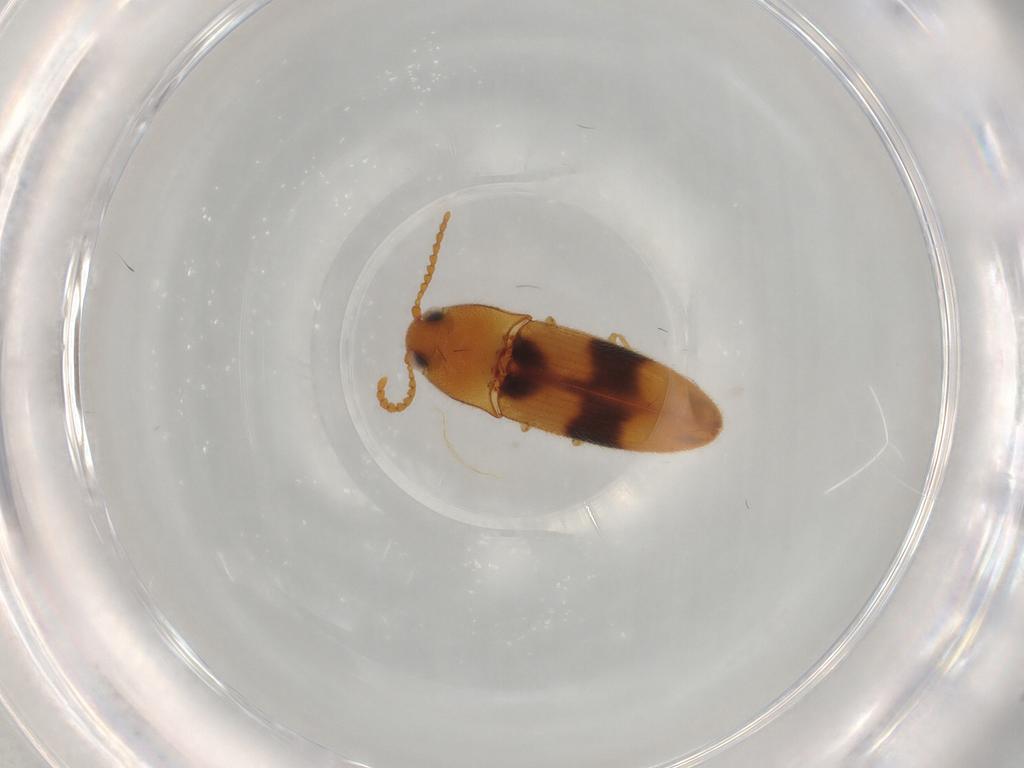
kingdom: Animalia
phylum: Arthropoda
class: Insecta
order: Coleoptera
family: Elateridae
